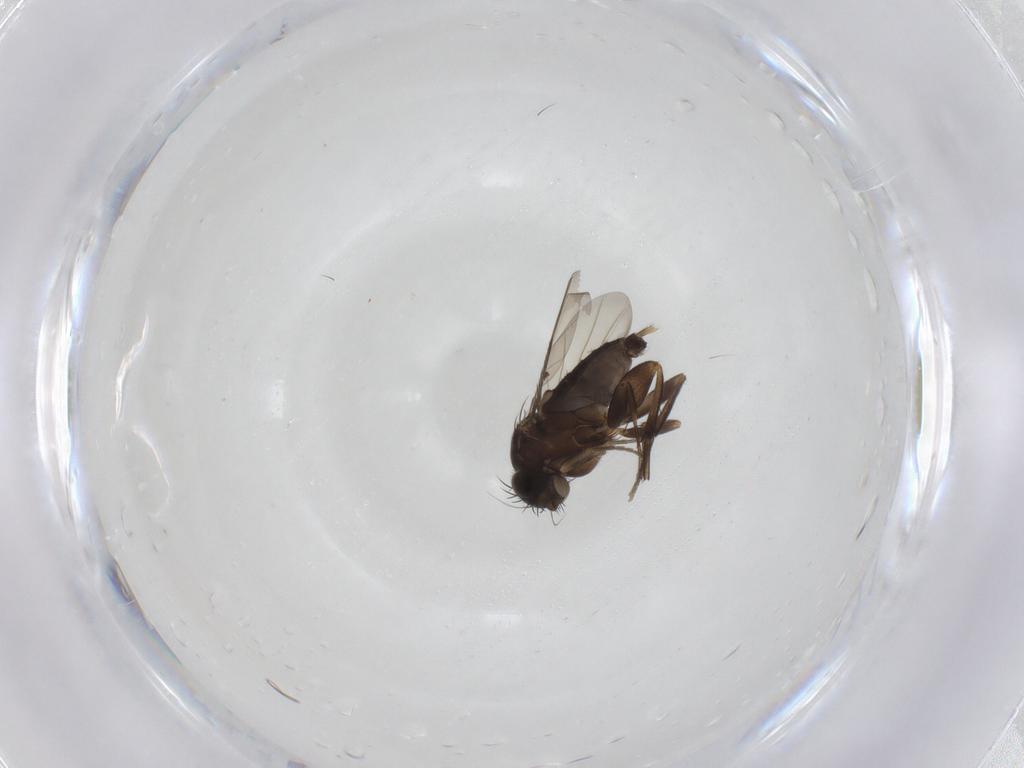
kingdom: Animalia
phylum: Arthropoda
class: Insecta
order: Diptera
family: Phoridae
